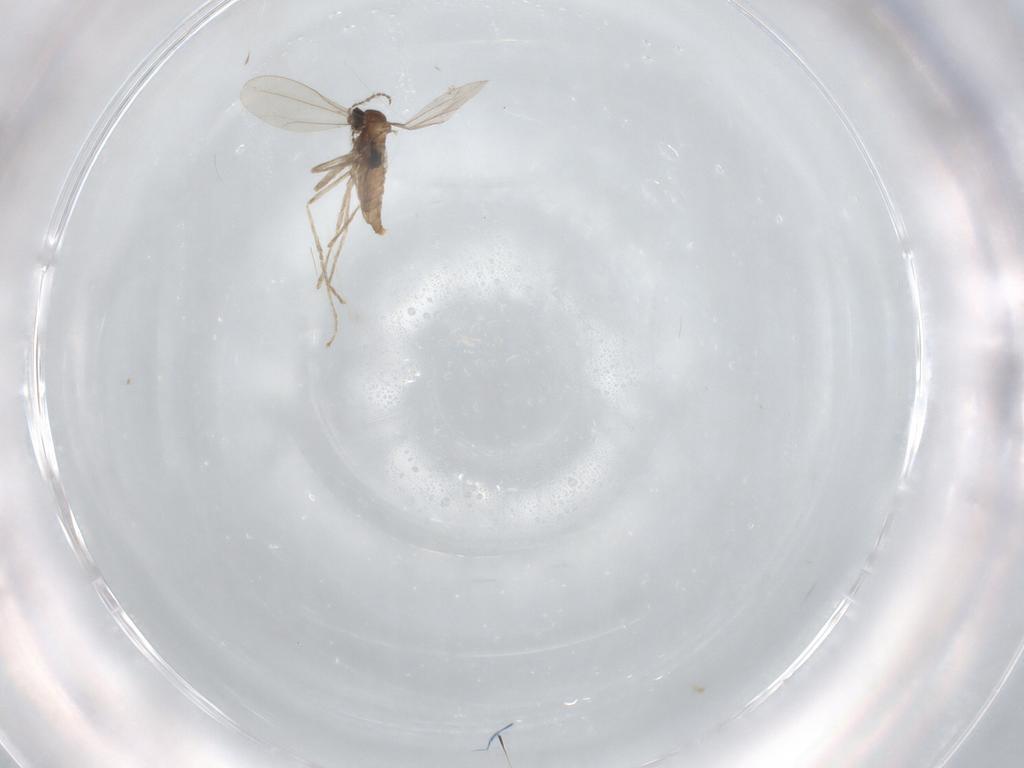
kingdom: Animalia
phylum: Arthropoda
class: Insecta
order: Diptera
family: Cecidomyiidae
